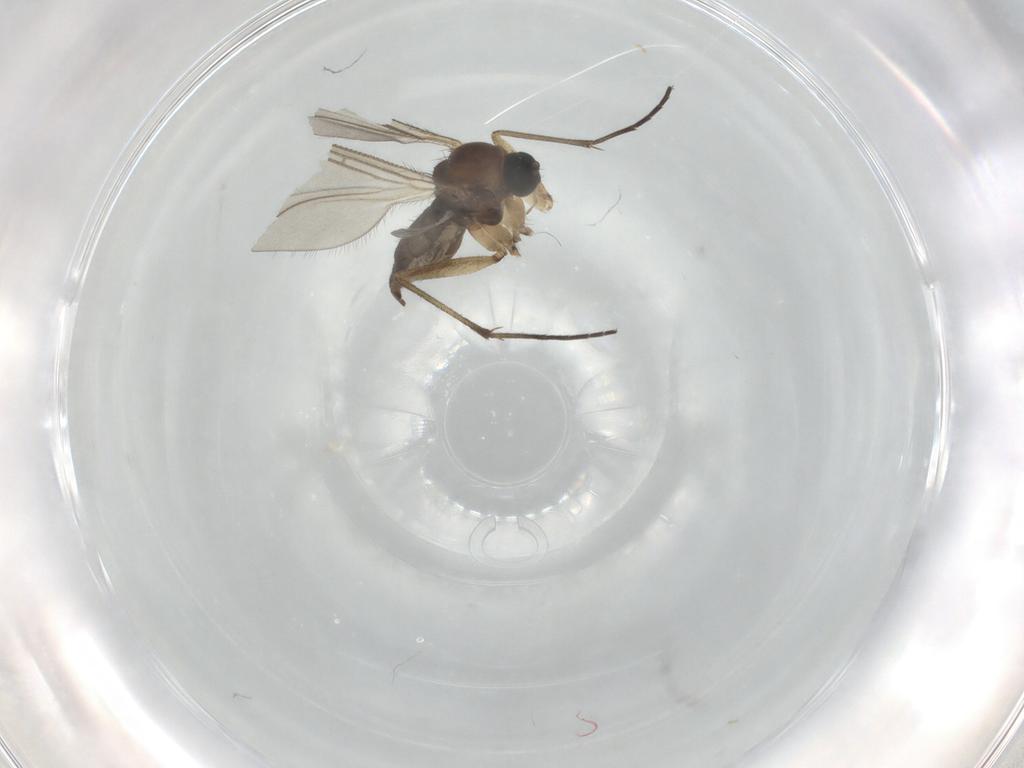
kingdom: Animalia
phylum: Arthropoda
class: Insecta
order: Diptera
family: Sciaridae
